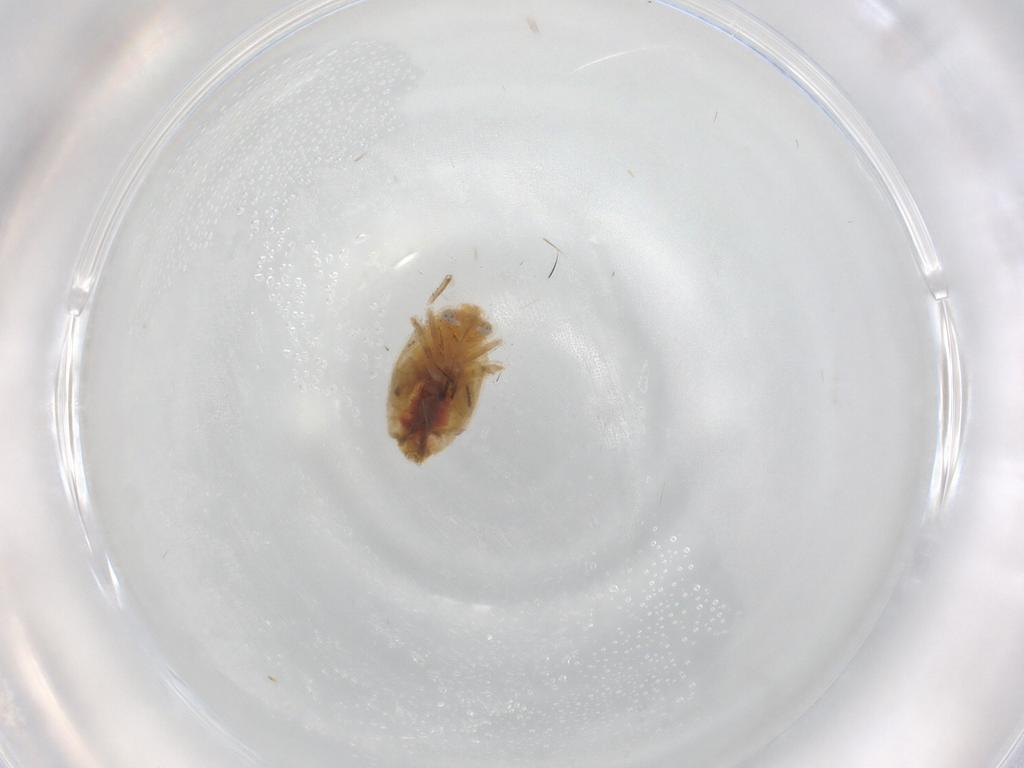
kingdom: Animalia
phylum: Arthropoda
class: Insecta
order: Hemiptera
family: Miridae
